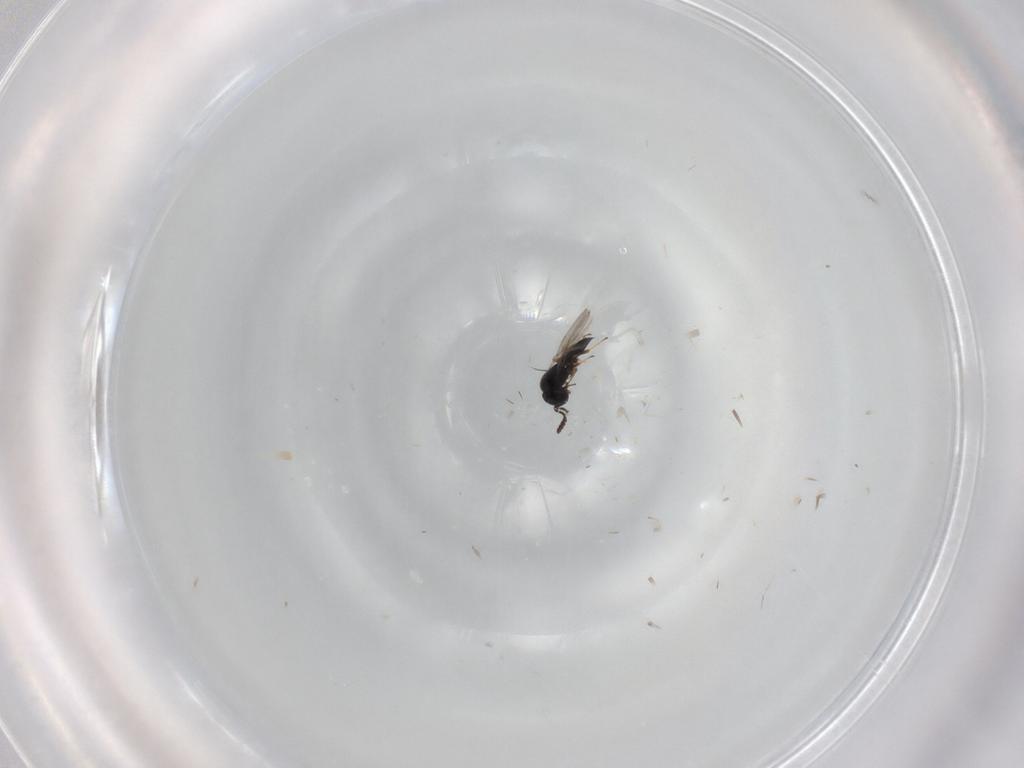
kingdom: Animalia
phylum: Arthropoda
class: Insecta
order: Hymenoptera
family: Scelionidae
